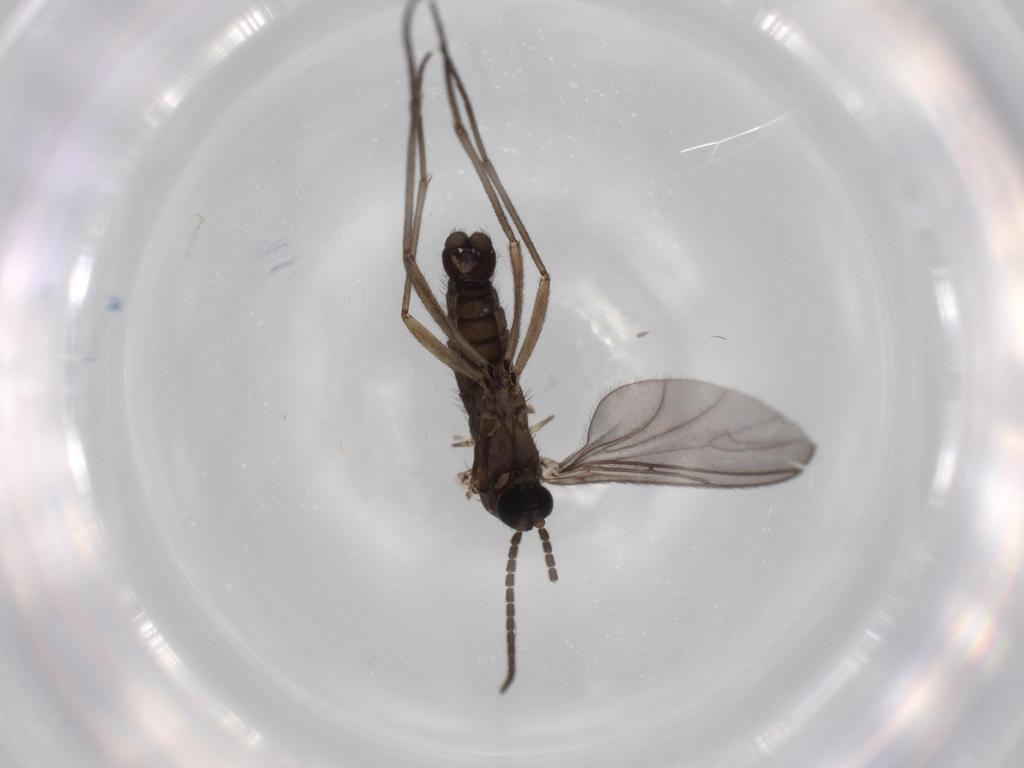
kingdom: Animalia
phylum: Arthropoda
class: Insecta
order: Diptera
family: Sciaridae
